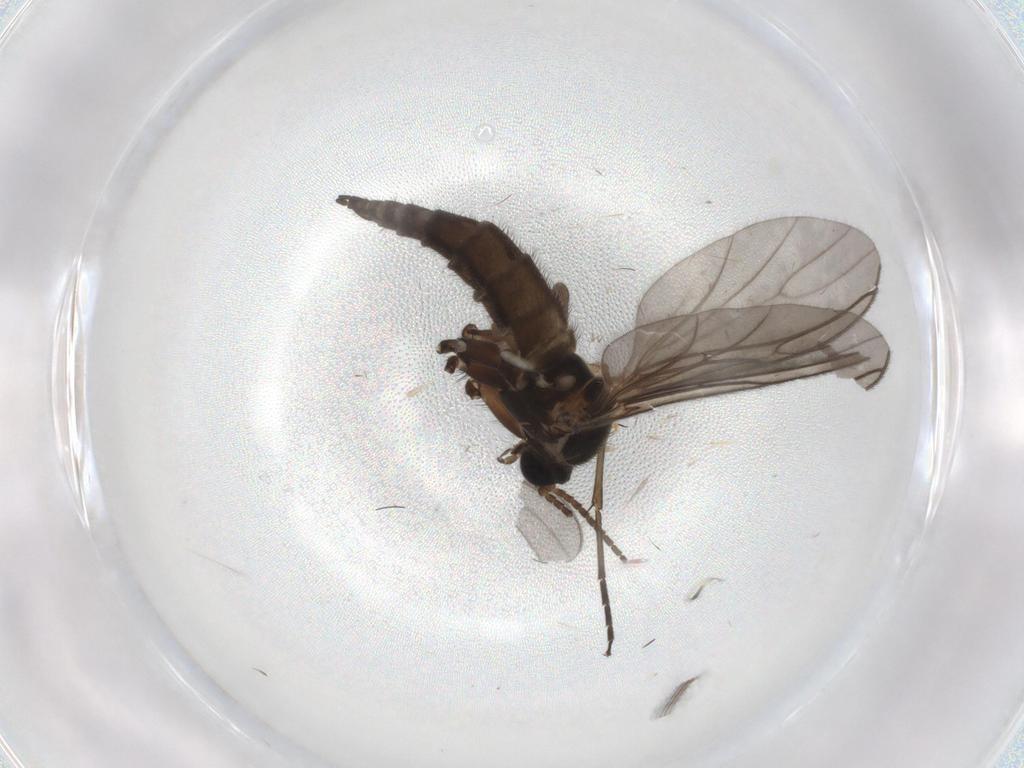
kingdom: Animalia
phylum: Arthropoda
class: Insecta
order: Diptera
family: Sciaridae
